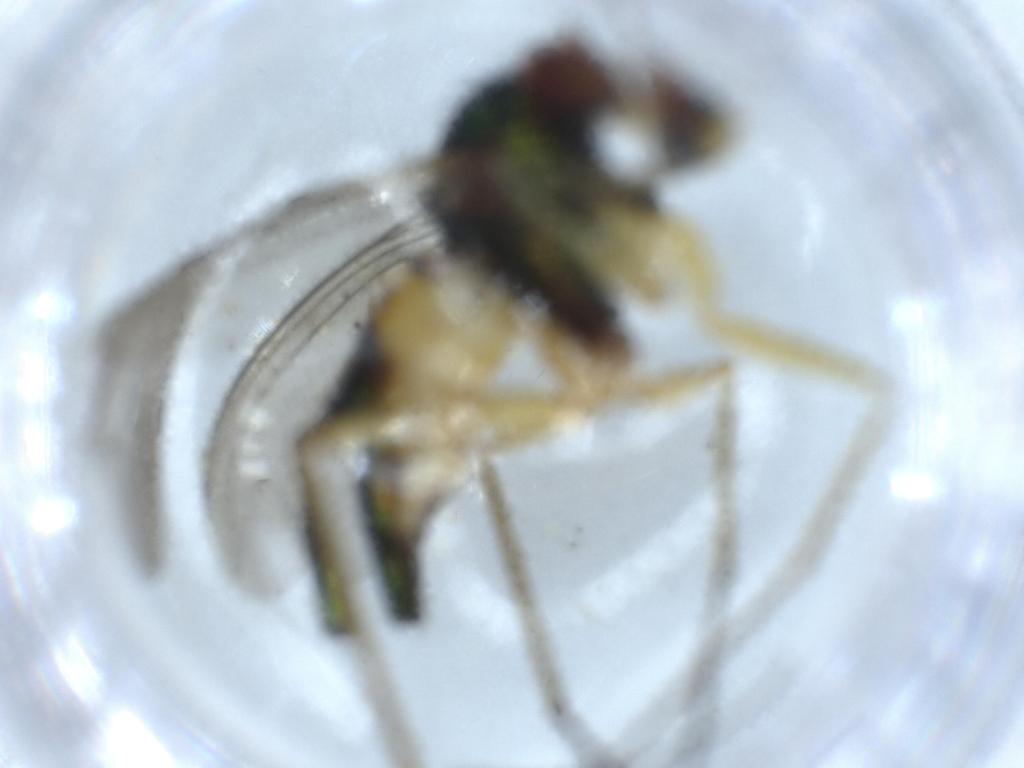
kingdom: Animalia
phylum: Arthropoda
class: Insecta
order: Diptera
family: Dolichopodidae
